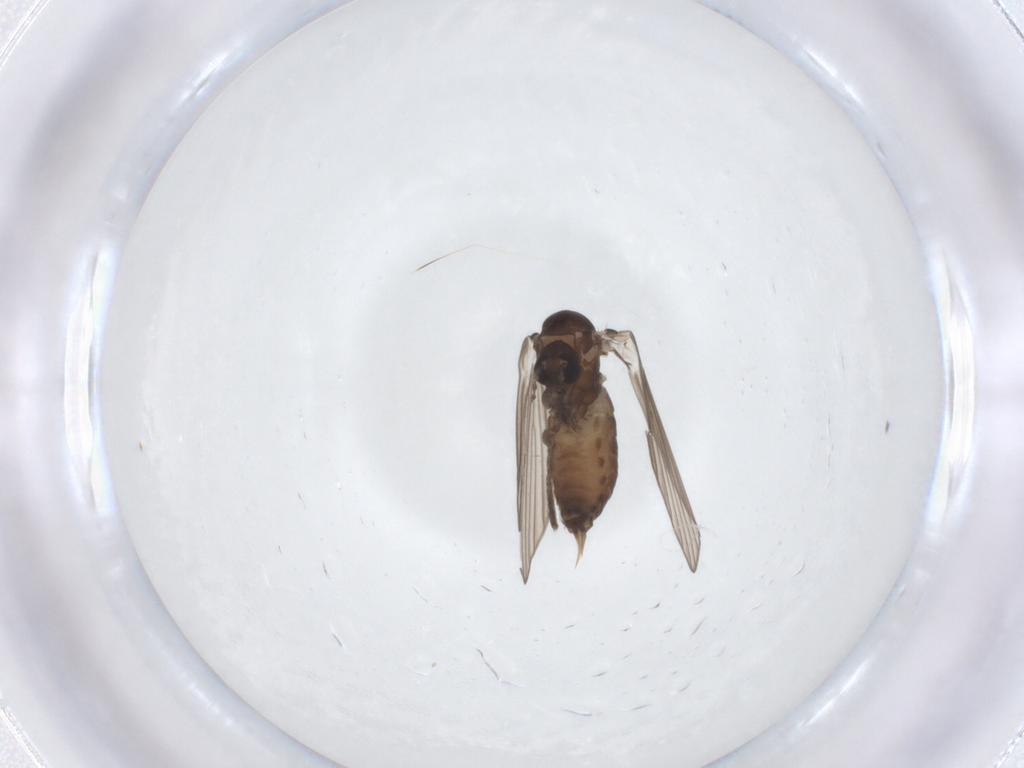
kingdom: Animalia
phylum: Arthropoda
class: Insecta
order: Diptera
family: Psychodidae
